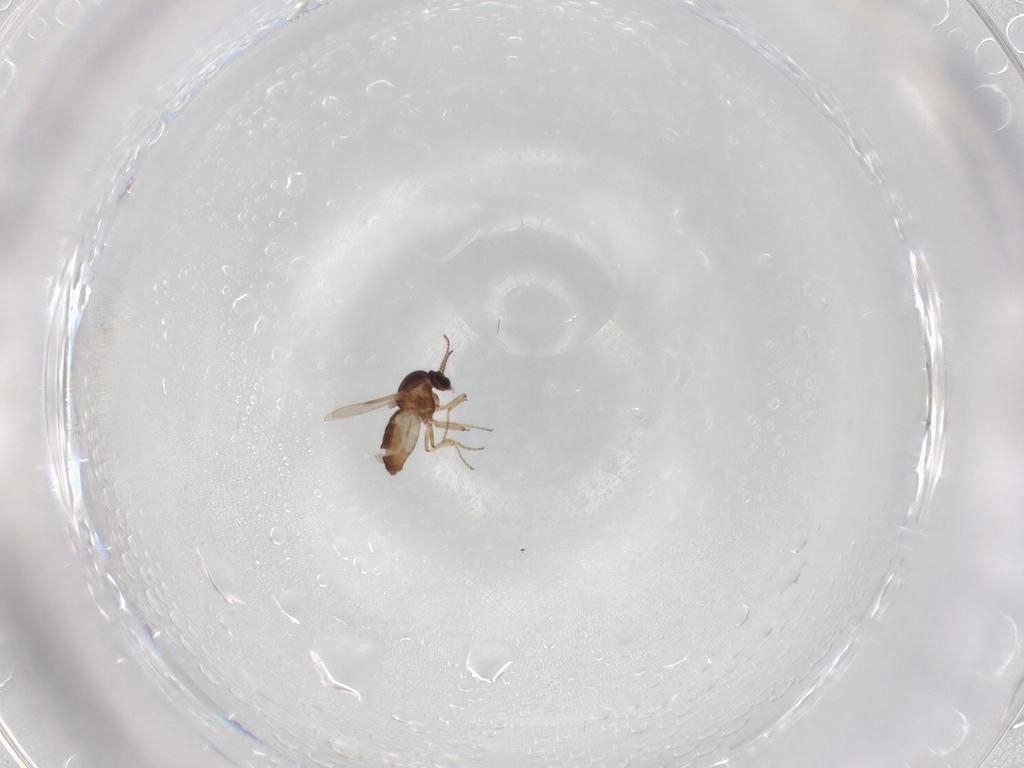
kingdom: Animalia
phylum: Arthropoda
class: Insecta
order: Diptera
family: Ceratopogonidae
